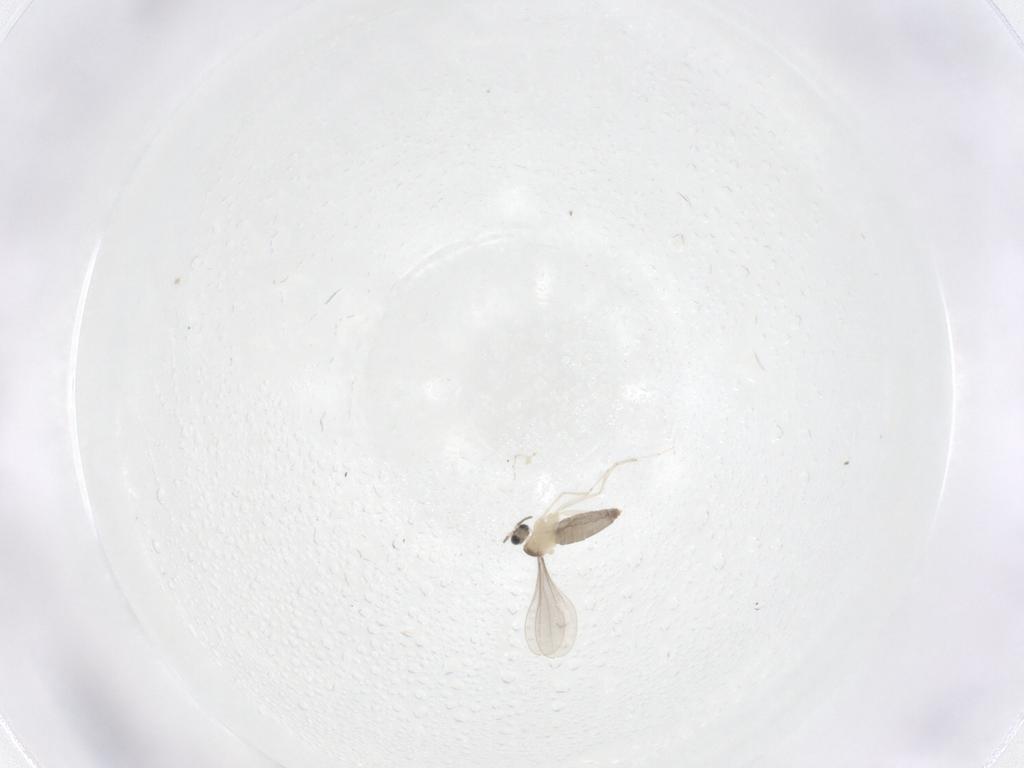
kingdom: Animalia
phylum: Arthropoda
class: Insecta
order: Diptera
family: Cecidomyiidae
